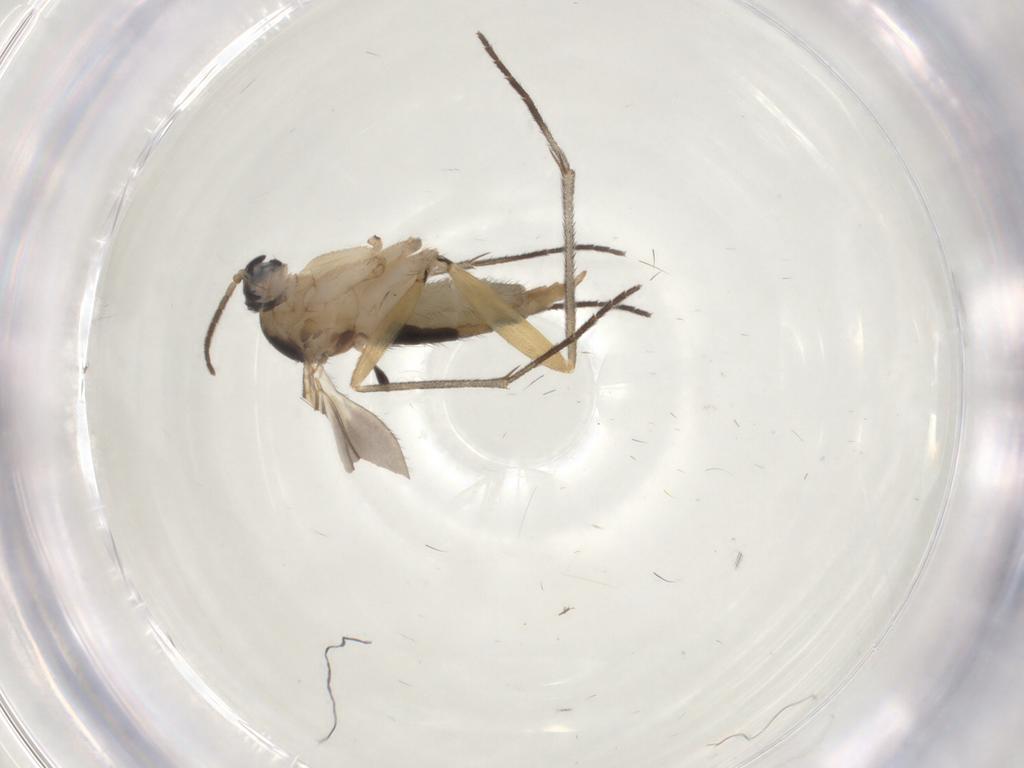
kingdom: Animalia
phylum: Arthropoda
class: Insecta
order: Diptera
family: Sciaridae
